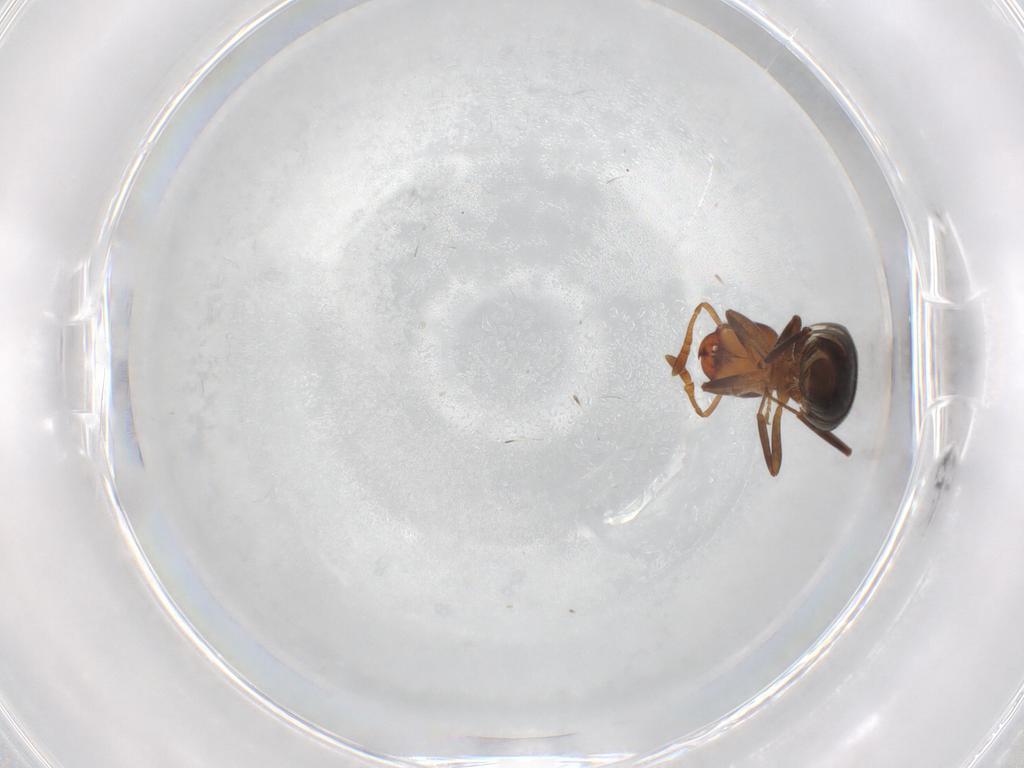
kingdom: Animalia
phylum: Arthropoda
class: Insecta
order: Hymenoptera
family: Formicidae
